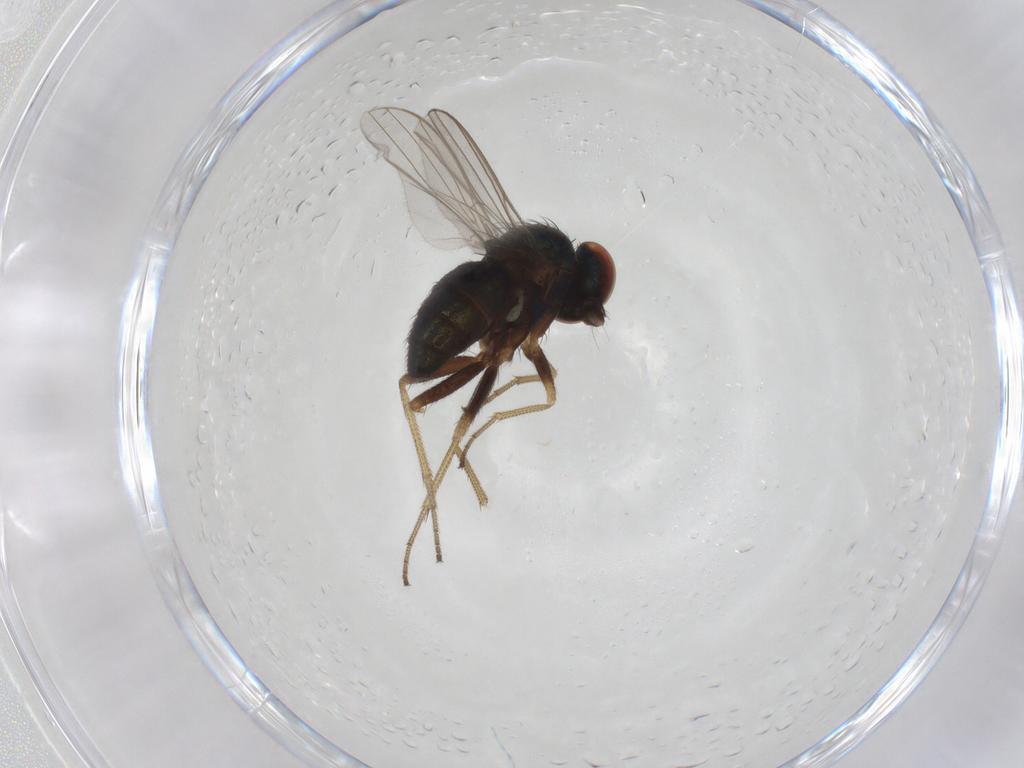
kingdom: Animalia
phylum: Arthropoda
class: Insecta
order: Diptera
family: Dolichopodidae
